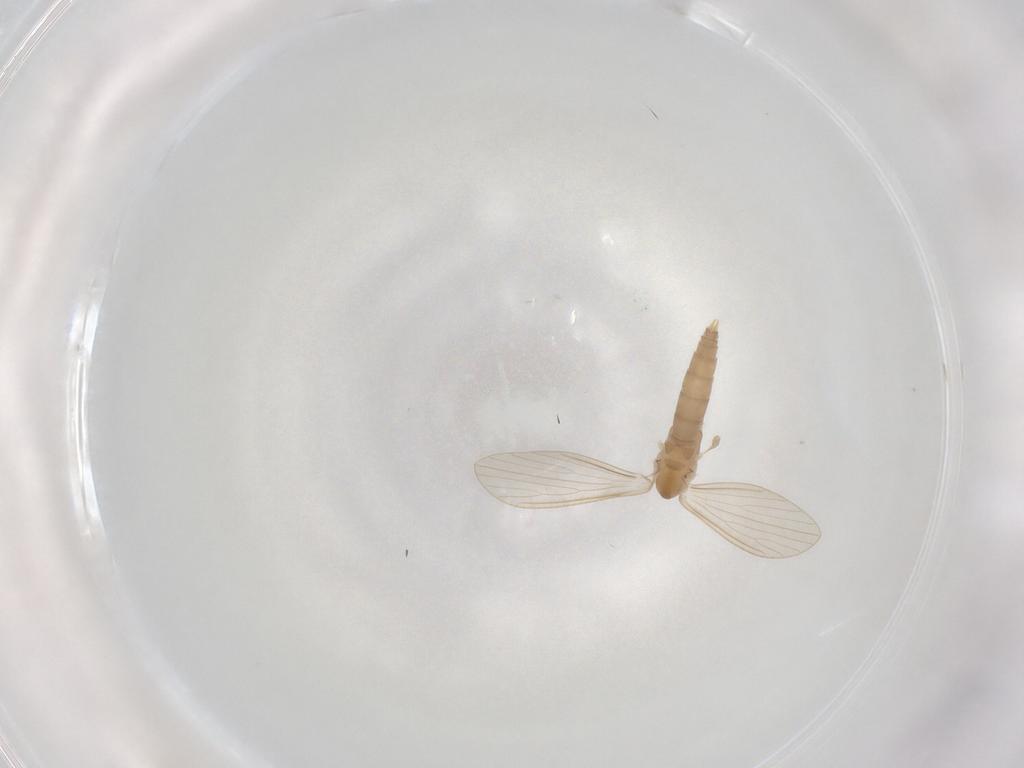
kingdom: Animalia
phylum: Arthropoda
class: Insecta
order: Diptera
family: Psychodidae
